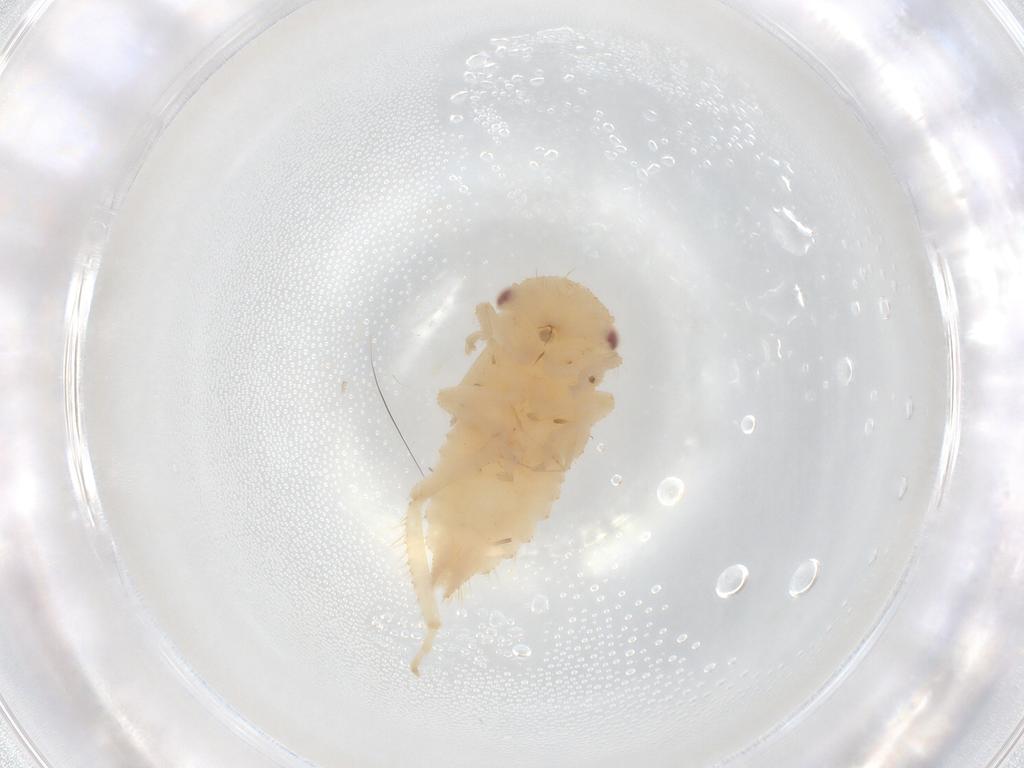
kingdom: Animalia
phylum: Arthropoda
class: Insecta
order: Hemiptera
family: Cicadellidae
